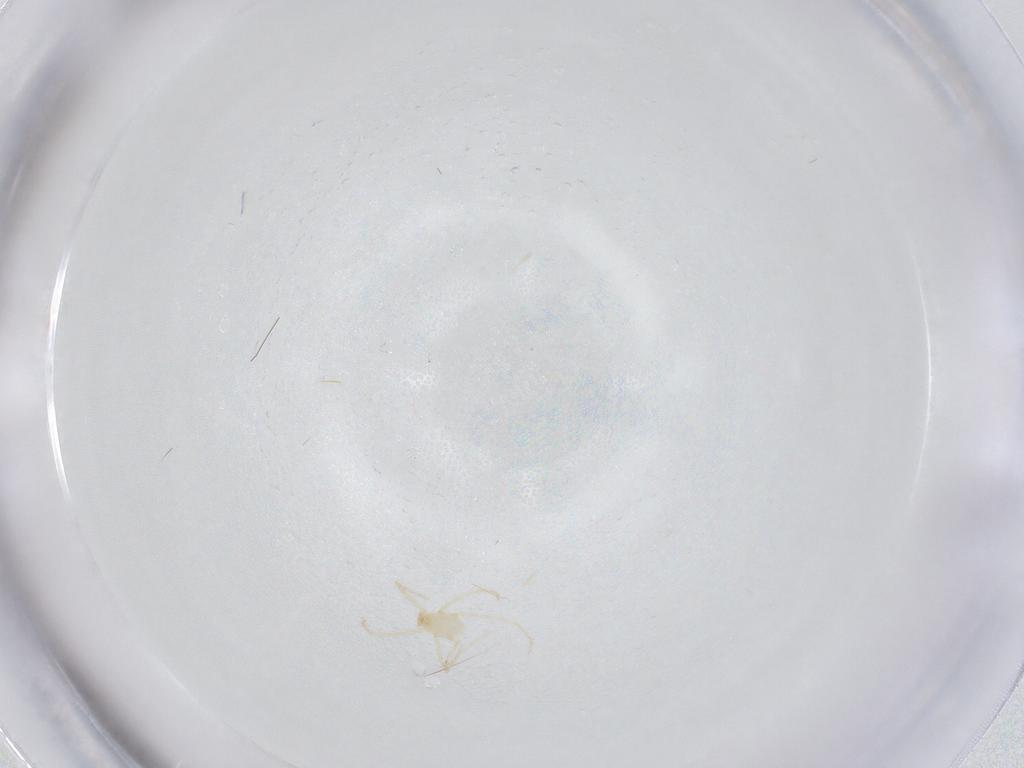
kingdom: Animalia
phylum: Arthropoda
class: Arachnida
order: Trombidiformes
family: Erythraeidae
